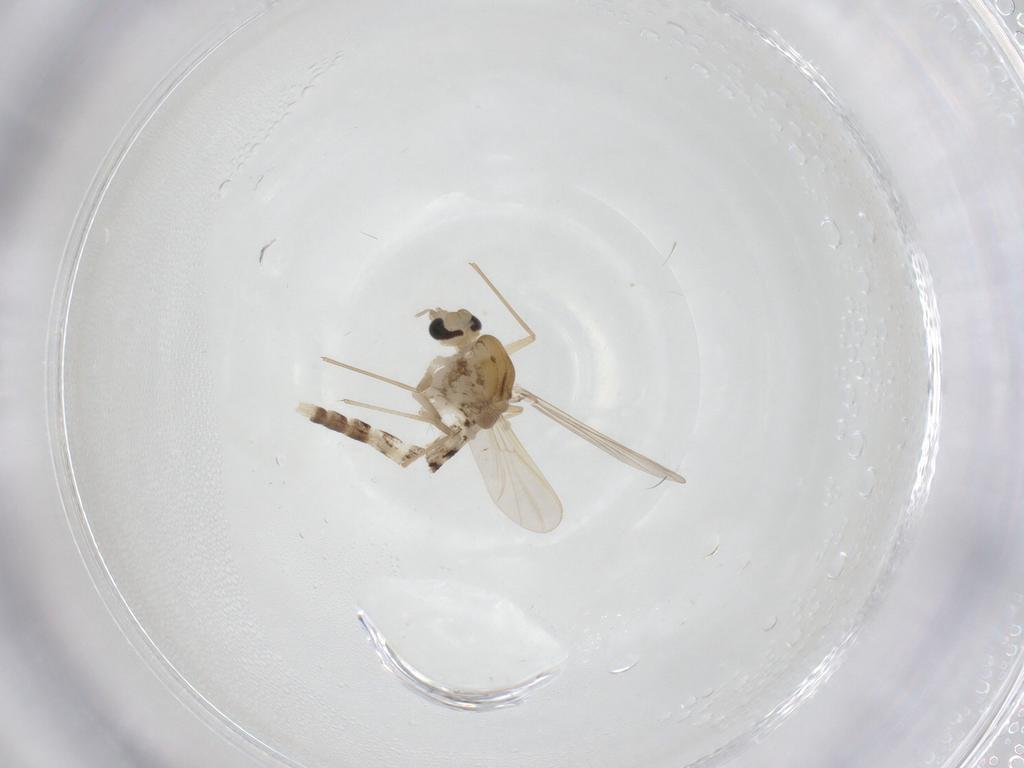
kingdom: Animalia
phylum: Arthropoda
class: Insecta
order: Diptera
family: Chironomidae
